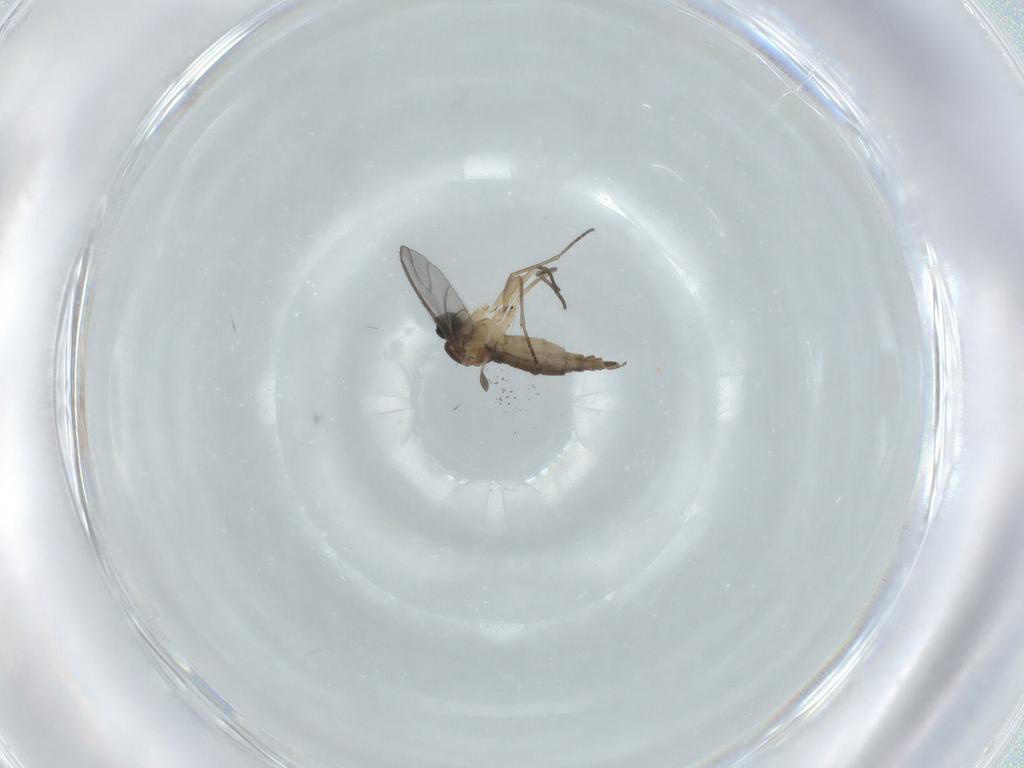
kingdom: Animalia
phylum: Arthropoda
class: Insecta
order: Diptera
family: Sciaridae
